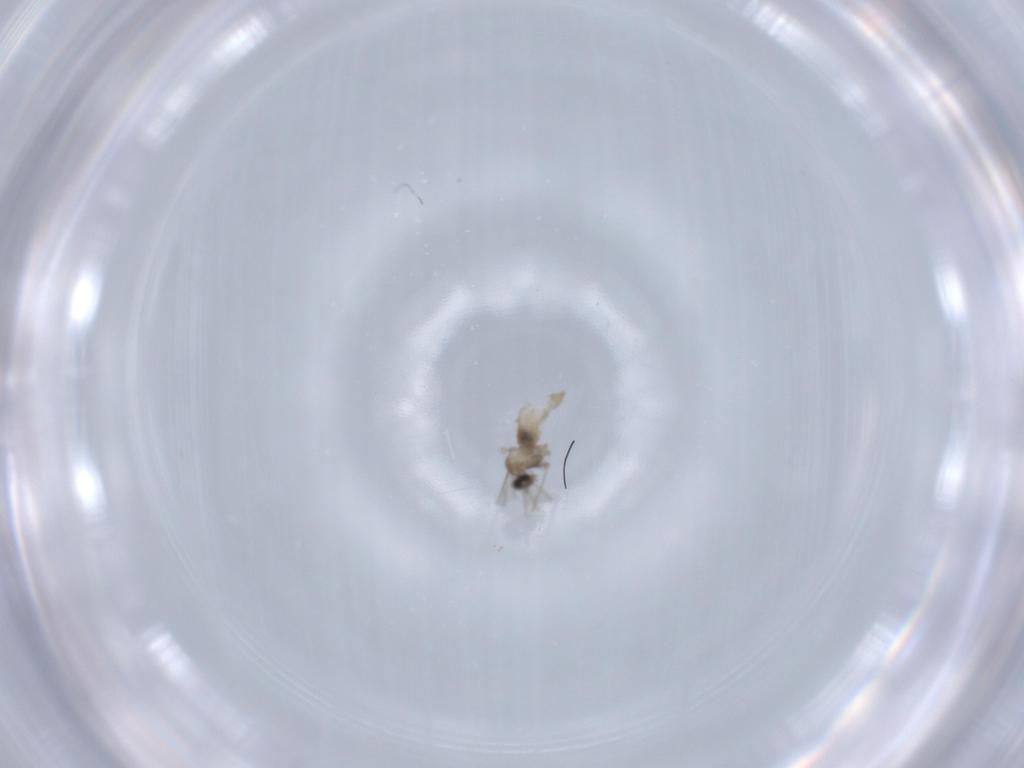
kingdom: Animalia
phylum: Arthropoda
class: Insecta
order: Diptera
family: Cecidomyiidae
